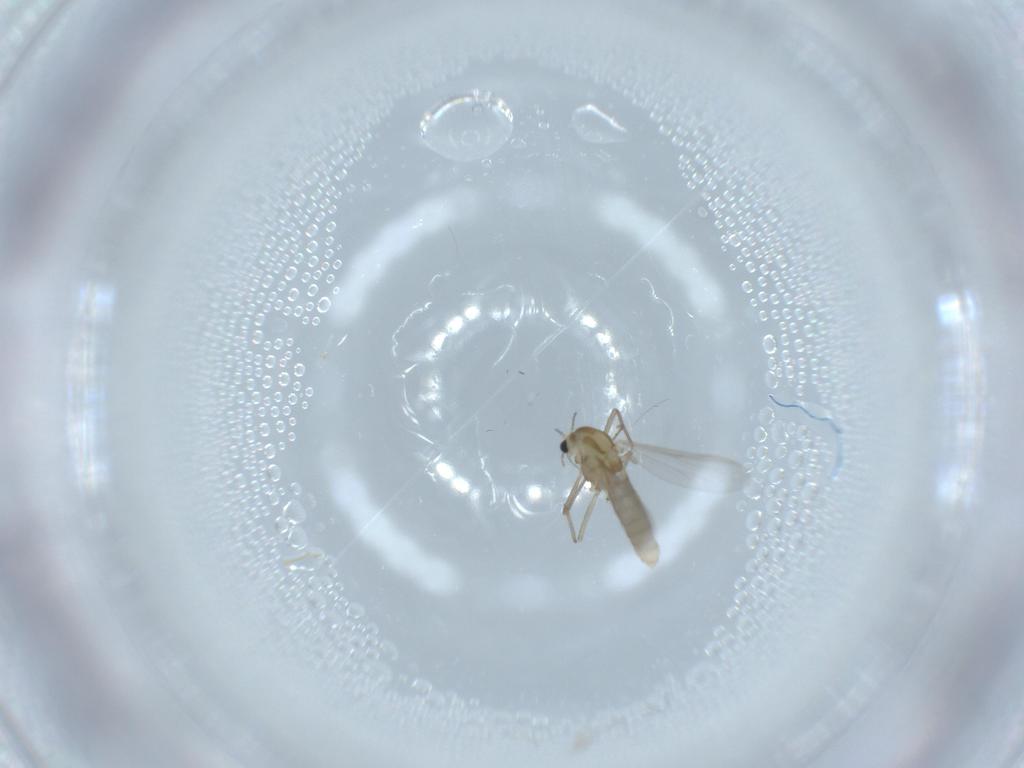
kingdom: Animalia
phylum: Arthropoda
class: Insecta
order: Diptera
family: Chironomidae
